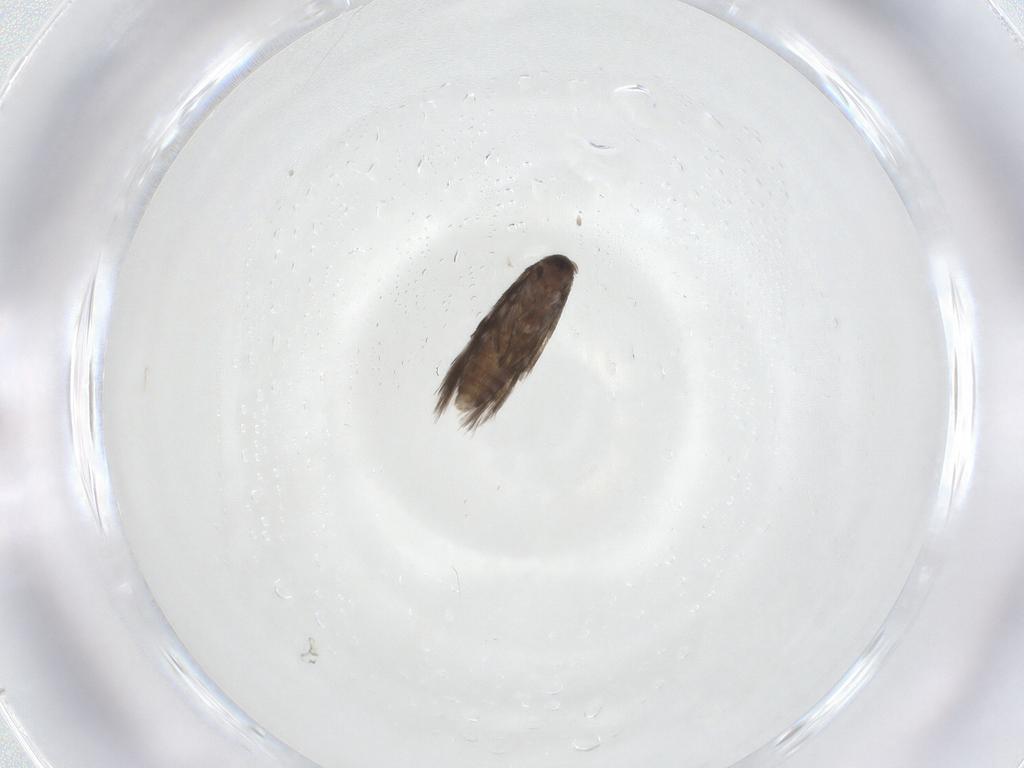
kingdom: Animalia
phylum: Arthropoda
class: Insecta
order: Lepidoptera
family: Lyonetiidae
